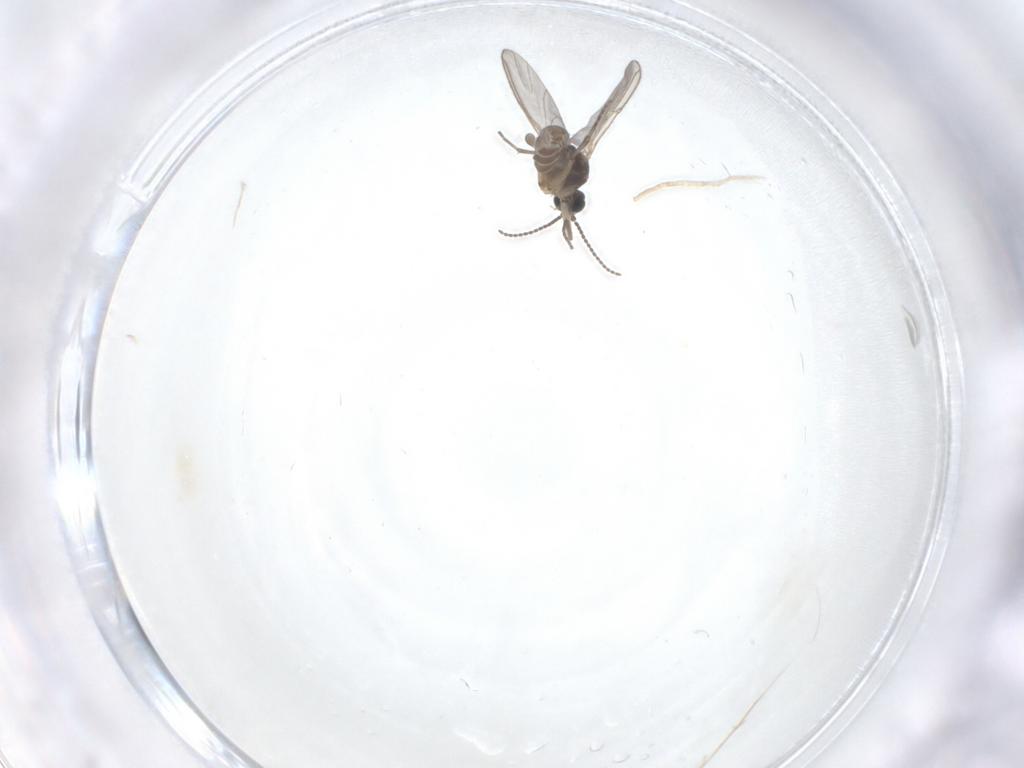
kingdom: Animalia
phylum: Arthropoda
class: Insecta
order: Diptera
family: Sciaridae
